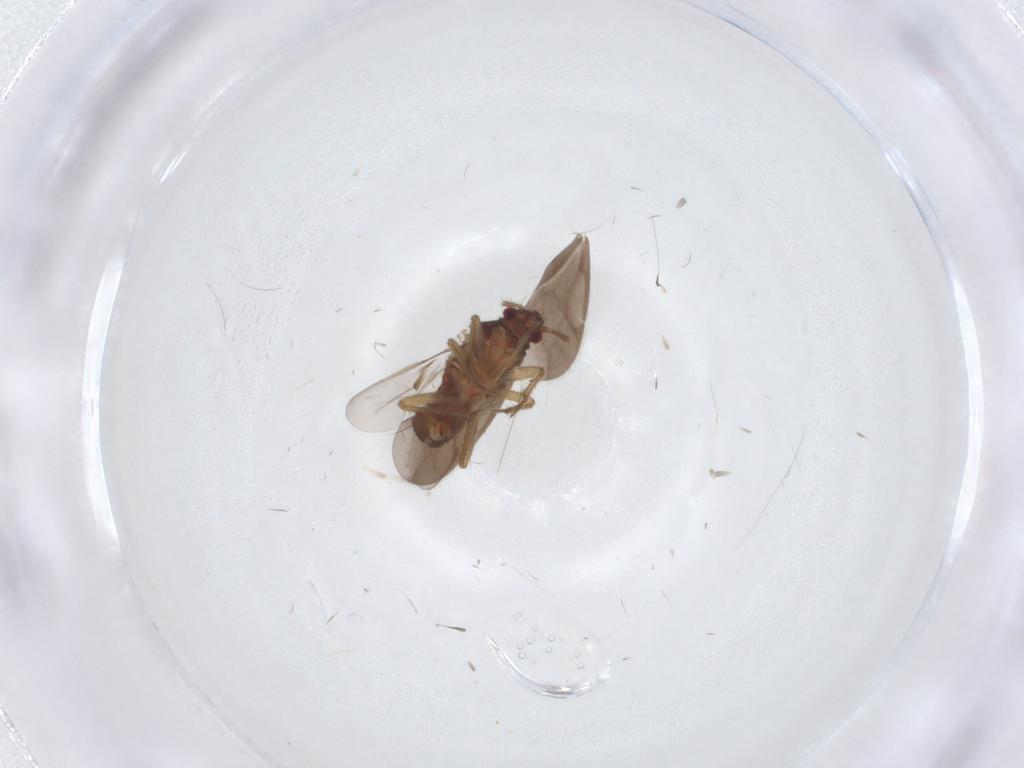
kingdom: Animalia
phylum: Arthropoda
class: Insecta
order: Hemiptera
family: Ceratocombidae
